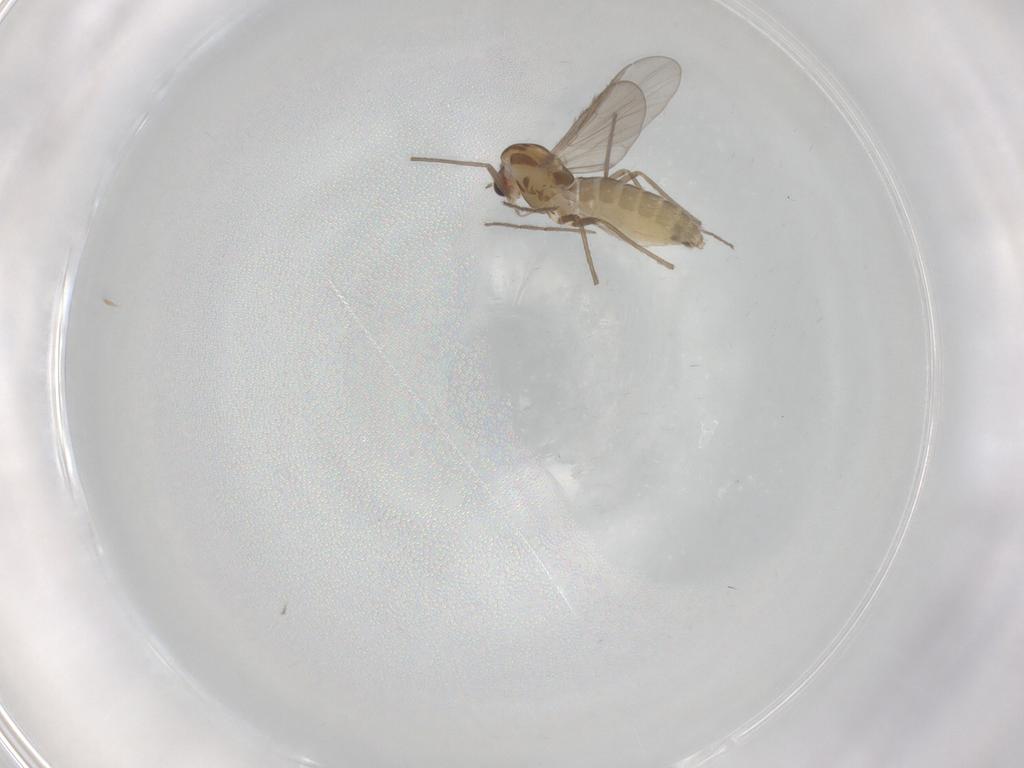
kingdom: Animalia
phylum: Arthropoda
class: Insecta
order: Diptera
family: Chironomidae
